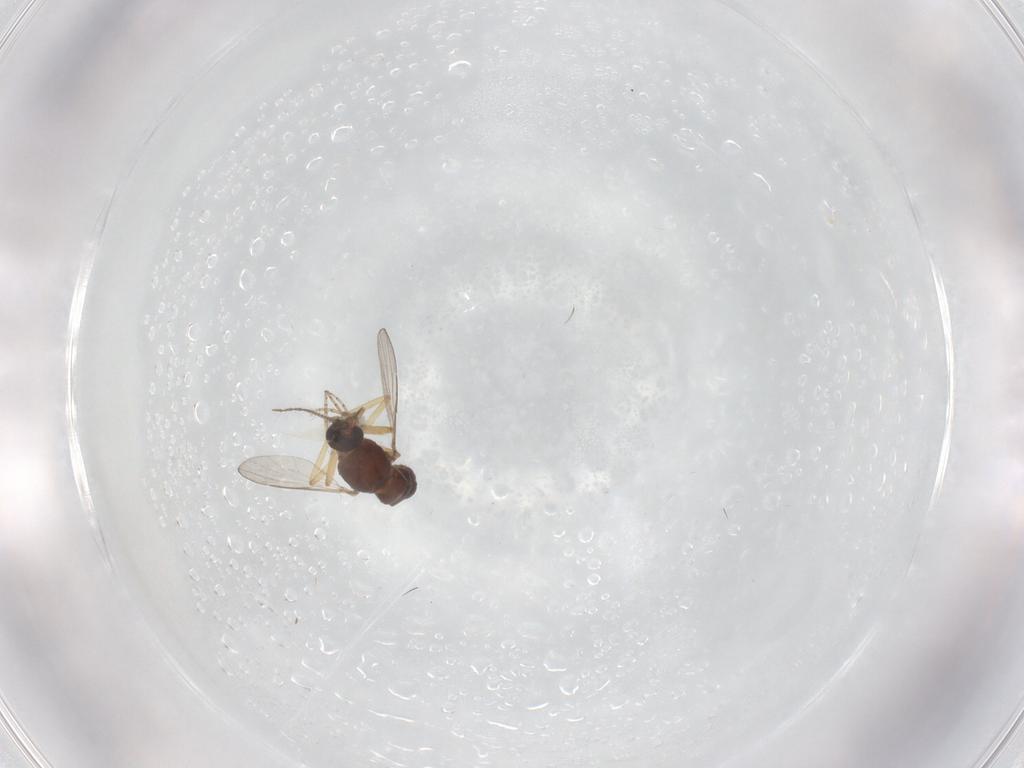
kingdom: Animalia
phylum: Arthropoda
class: Insecta
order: Diptera
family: Ceratopogonidae
